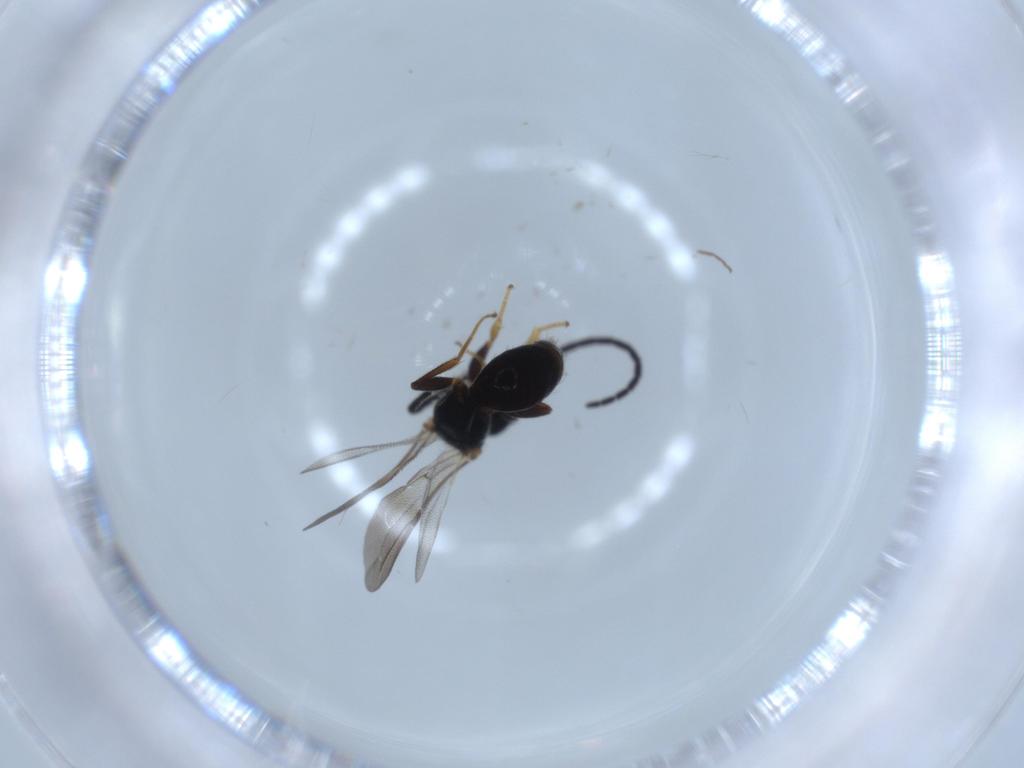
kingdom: Animalia
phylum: Arthropoda
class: Insecta
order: Hymenoptera
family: Bethylidae
